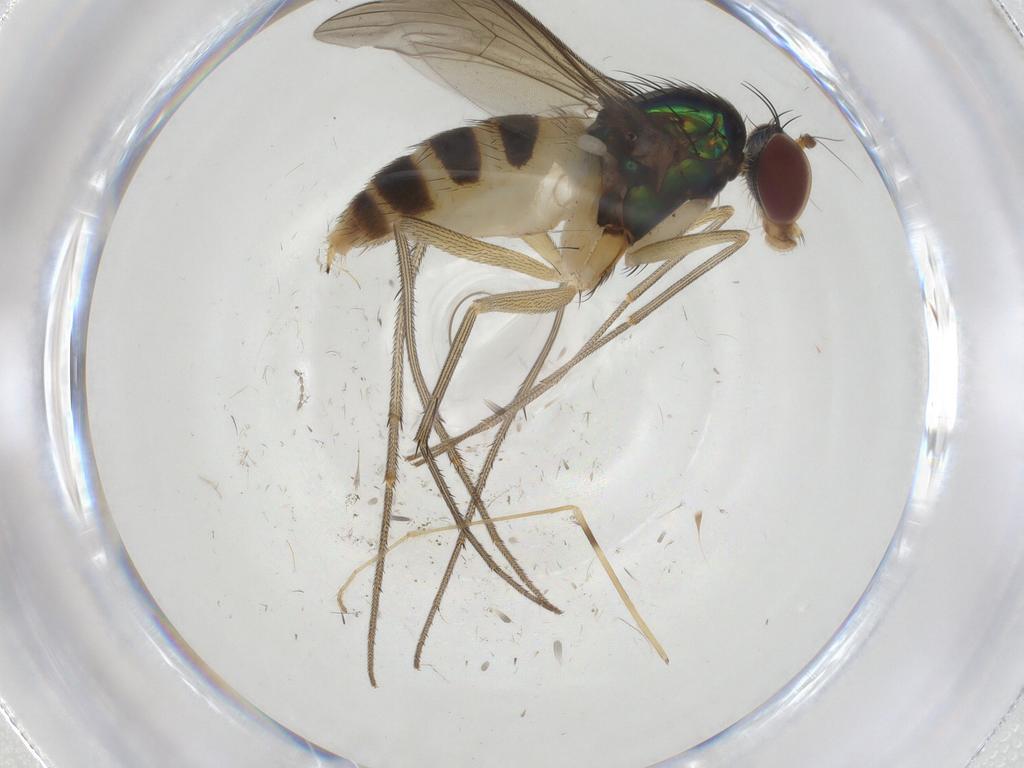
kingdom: Animalia
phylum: Arthropoda
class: Insecta
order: Diptera
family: Dolichopodidae
